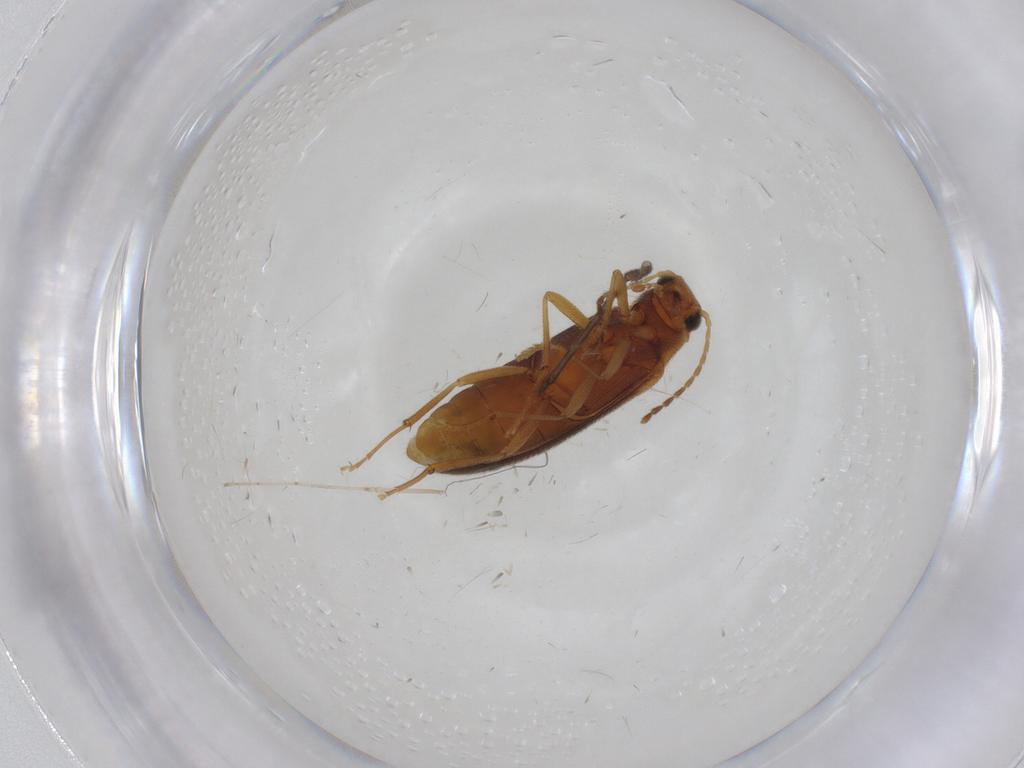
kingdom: Animalia
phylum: Arthropoda
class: Insecta
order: Coleoptera
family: Melandryidae
